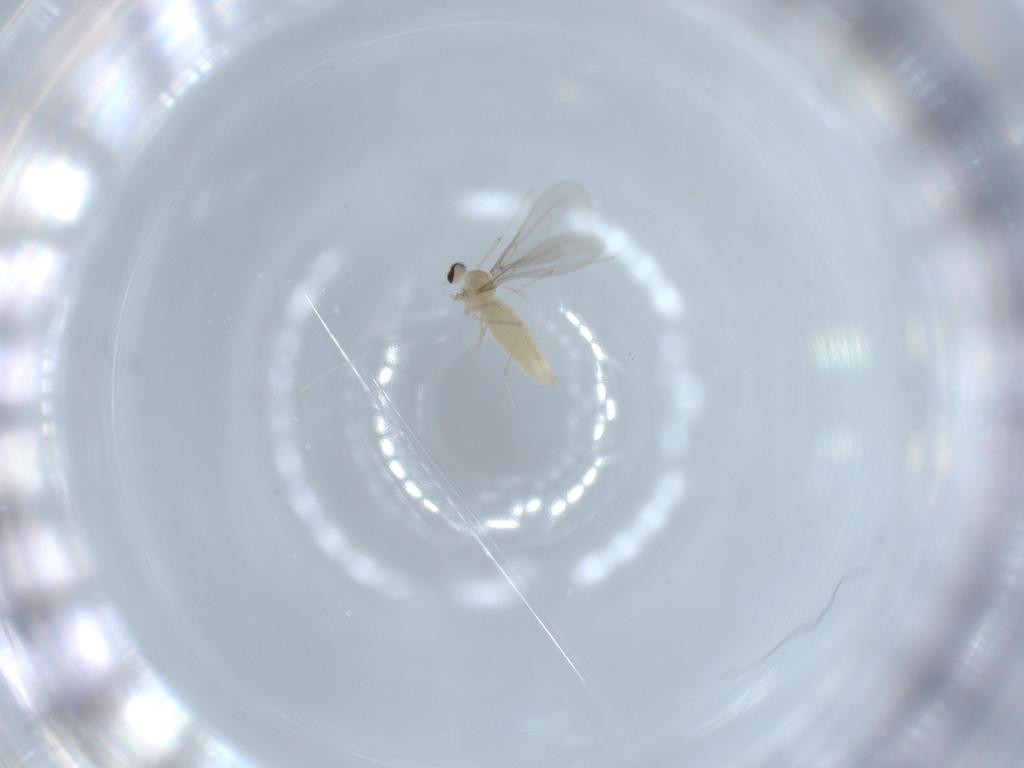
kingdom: Animalia
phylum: Arthropoda
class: Insecta
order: Diptera
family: Cecidomyiidae
